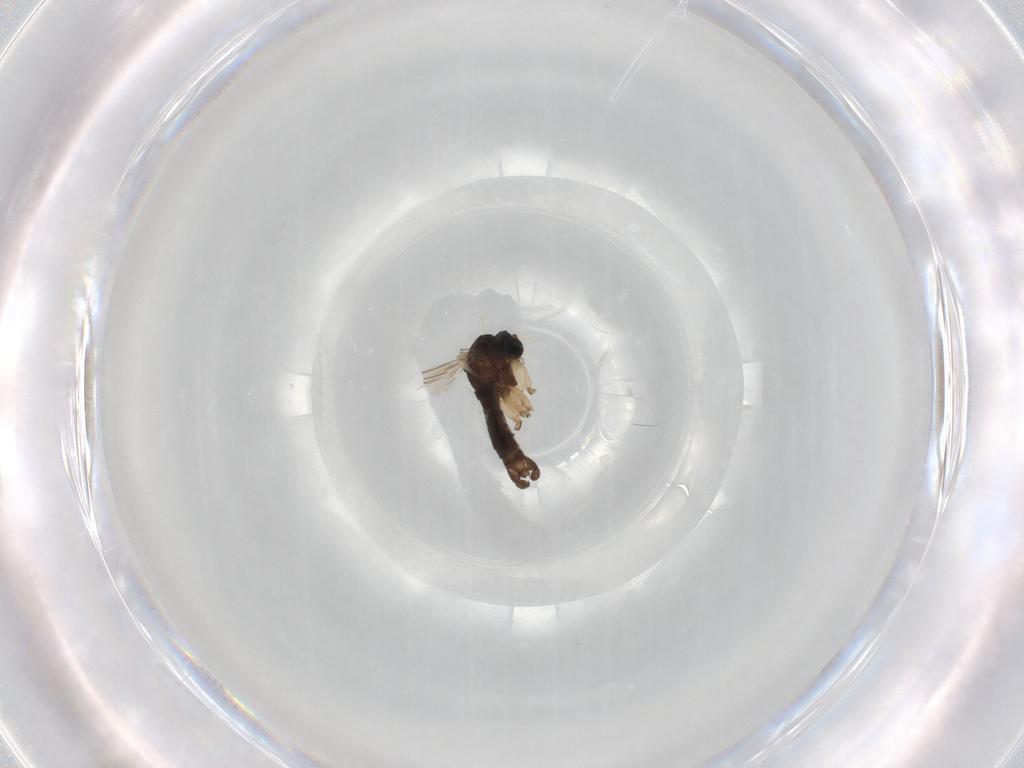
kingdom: Animalia
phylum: Arthropoda
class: Insecta
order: Diptera
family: Sciaridae
